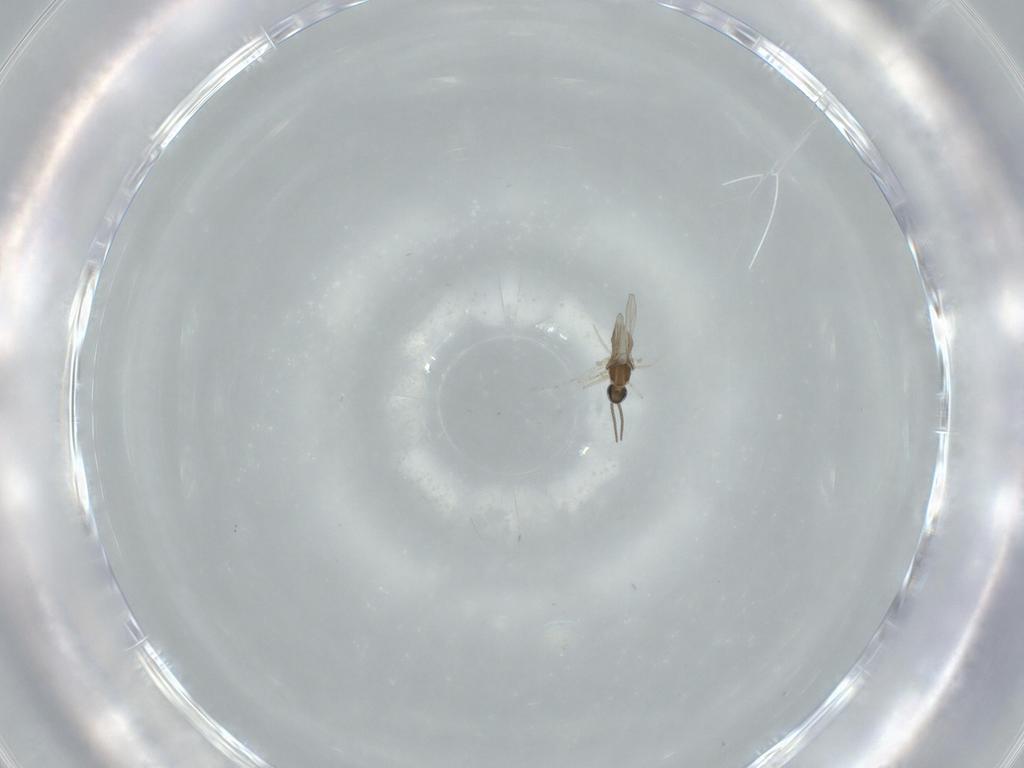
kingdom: Animalia
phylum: Arthropoda
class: Insecta
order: Diptera
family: Cecidomyiidae
